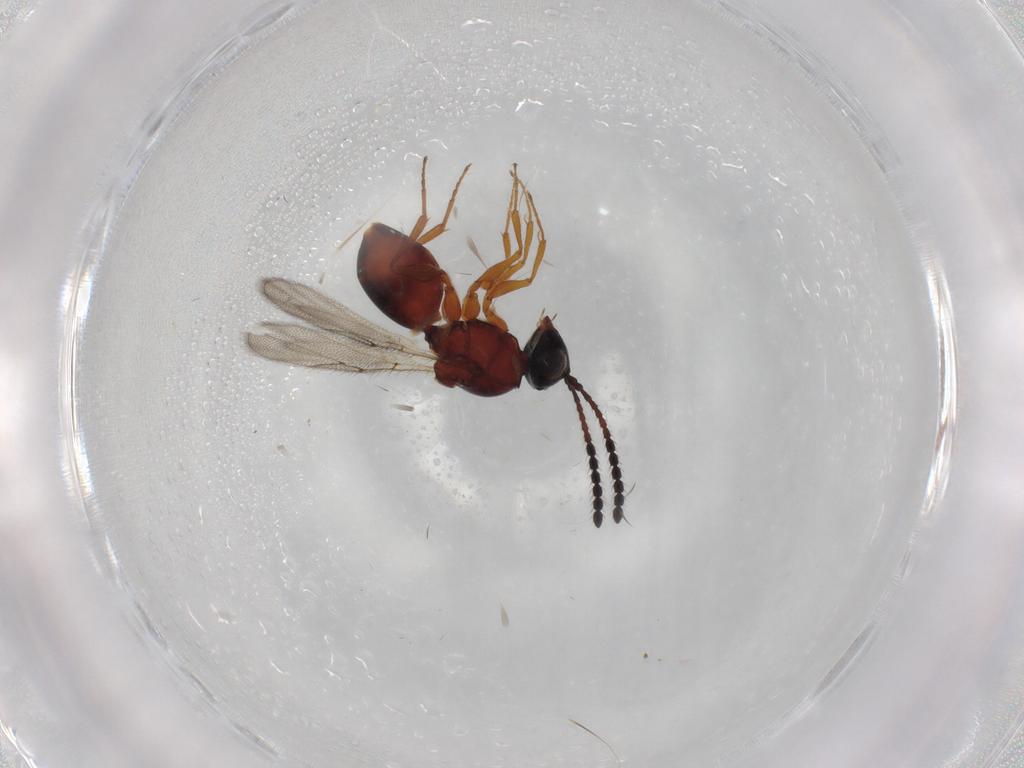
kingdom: Animalia
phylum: Arthropoda
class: Insecta
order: Hymenoptera
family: Figitidae
